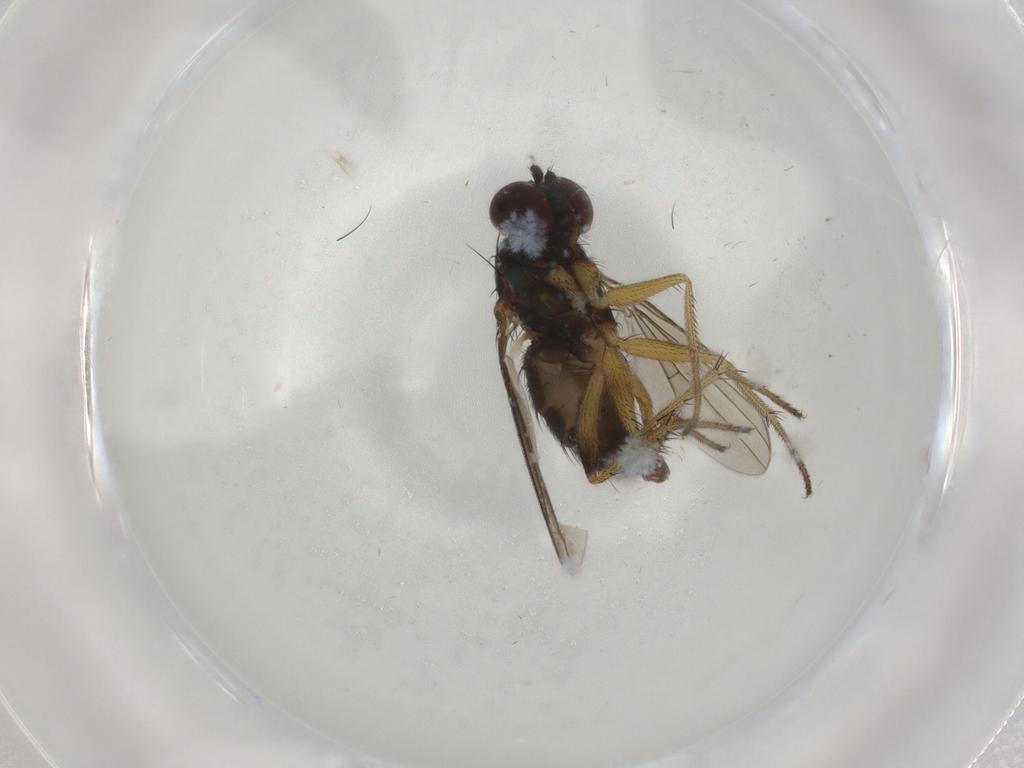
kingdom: Animalia
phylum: Arthropoda
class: Insecta
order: Diptera
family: Dolichopodidae
